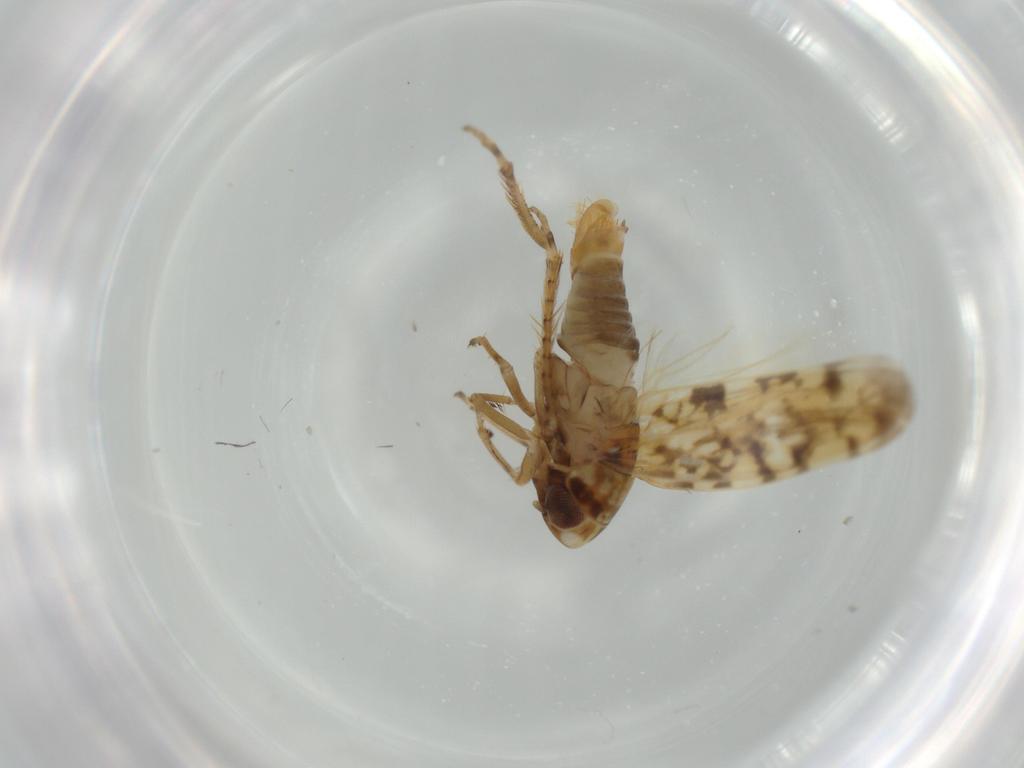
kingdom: Animalia
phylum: Arthropoda
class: Insecta
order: Hemiptera
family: Cicadellidae
